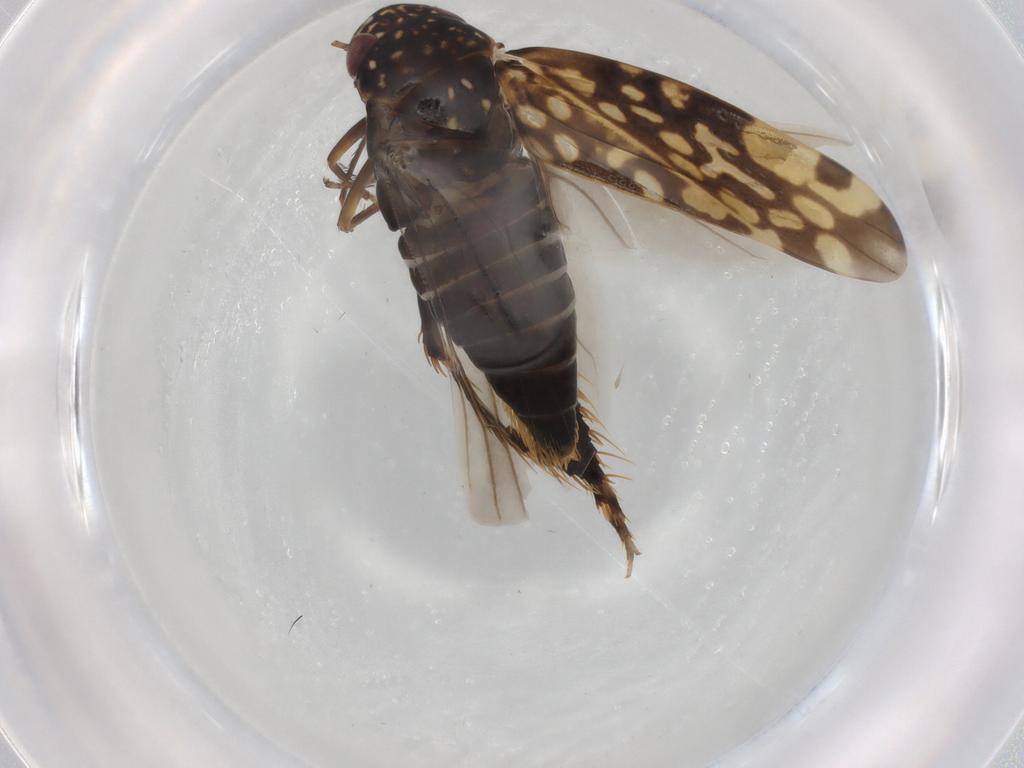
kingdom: Animalia
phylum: Arthropoda
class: Insecta
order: Hemiptera
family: Cicadellidae
